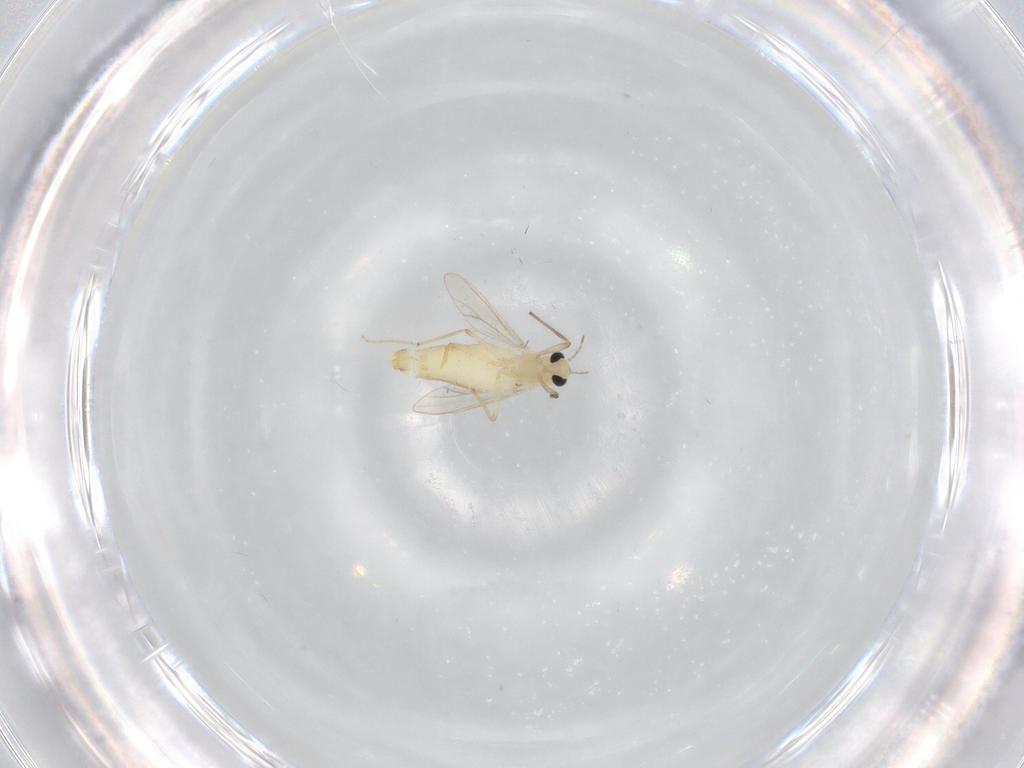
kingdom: Animalia
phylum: Arthropoda
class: Insecta
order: Diptera
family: Chironomidae
